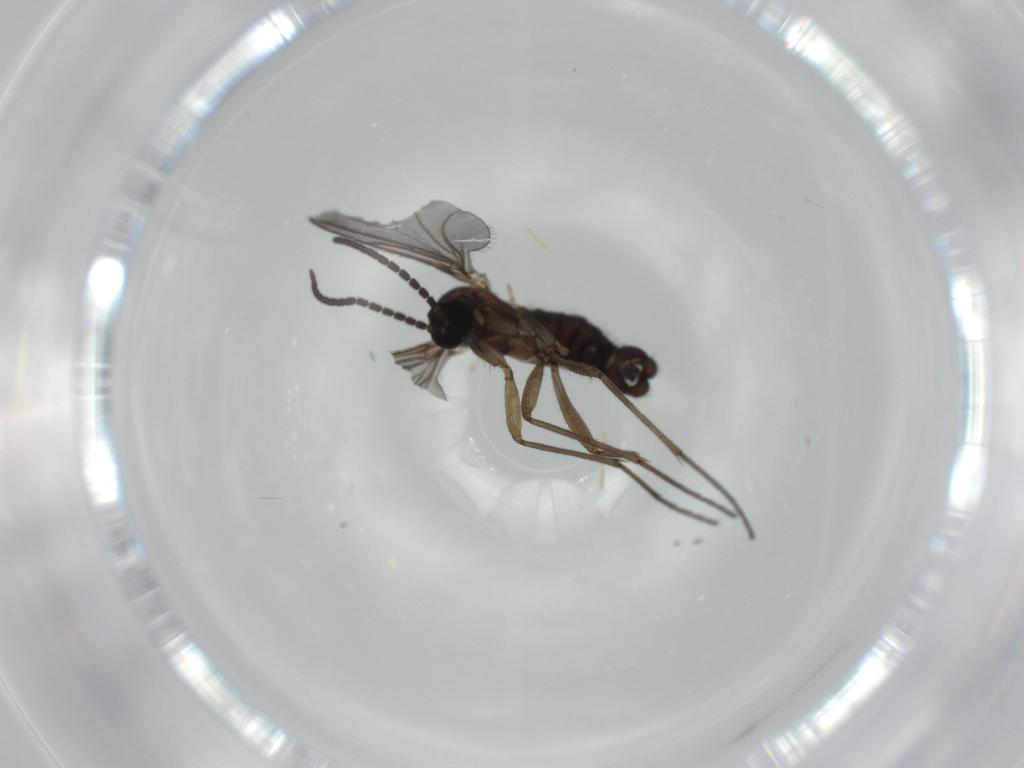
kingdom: Animalia
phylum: Arthropoda
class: Insecta
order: Diptera
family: Sciaridae
